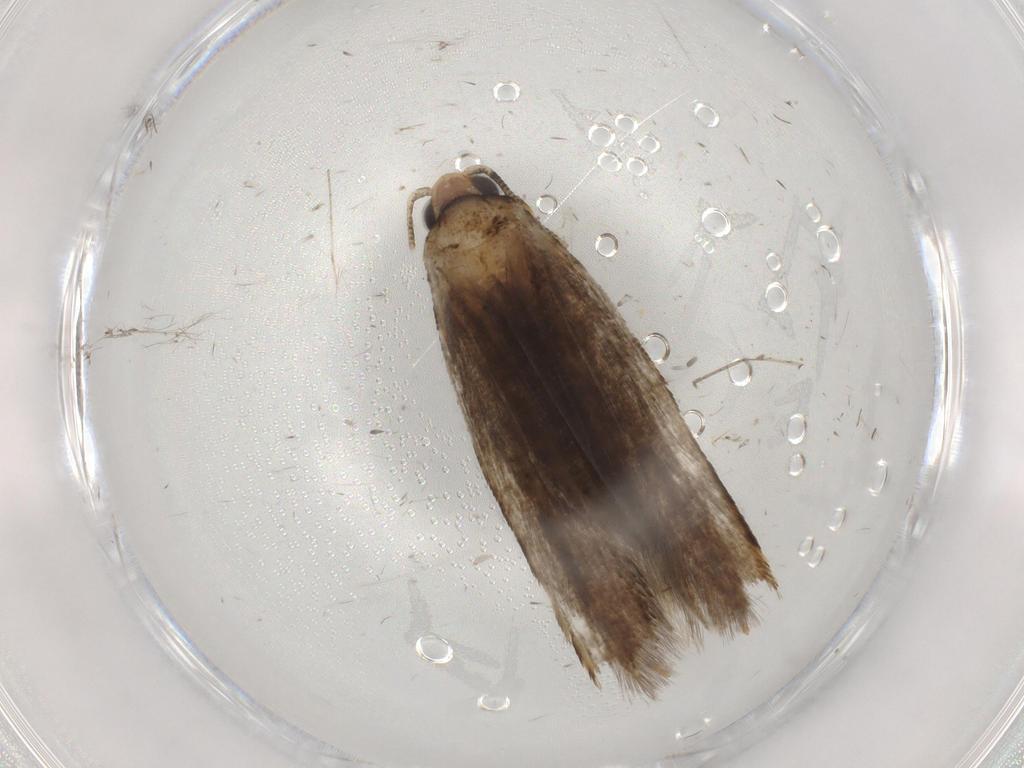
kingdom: Animalia
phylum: Arthropoda
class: Insecta
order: Lepidoptera
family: Tineidae
